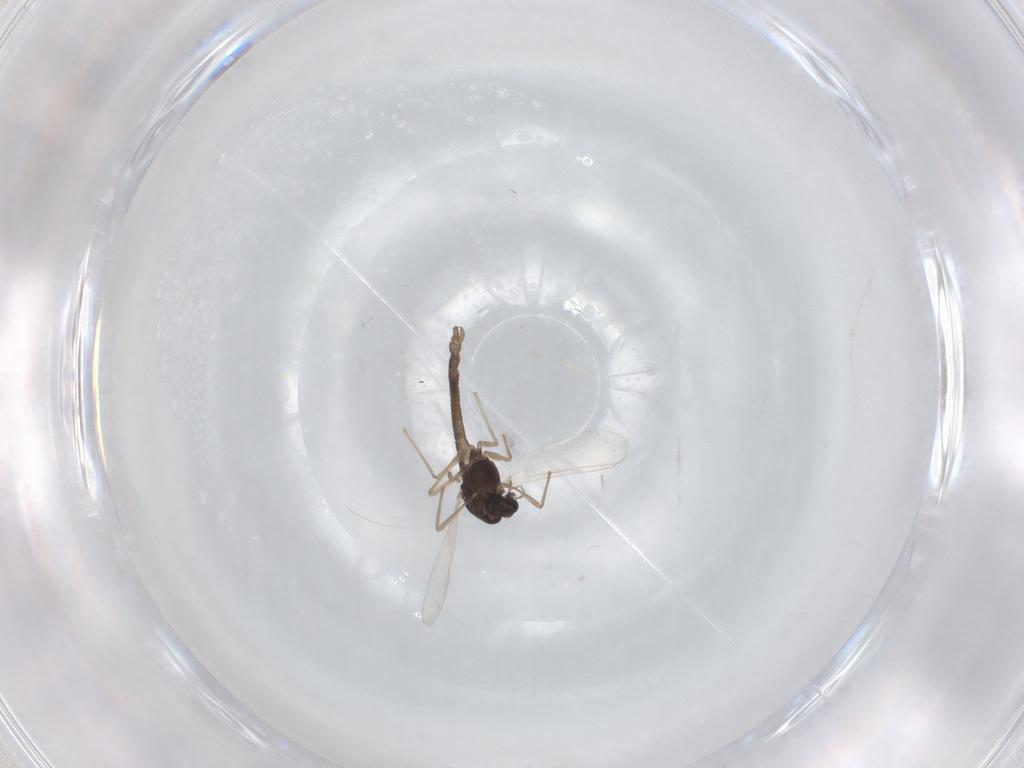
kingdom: Animalia
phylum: Arthropoda
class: Insecta
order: Diptera
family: Chironomidae
